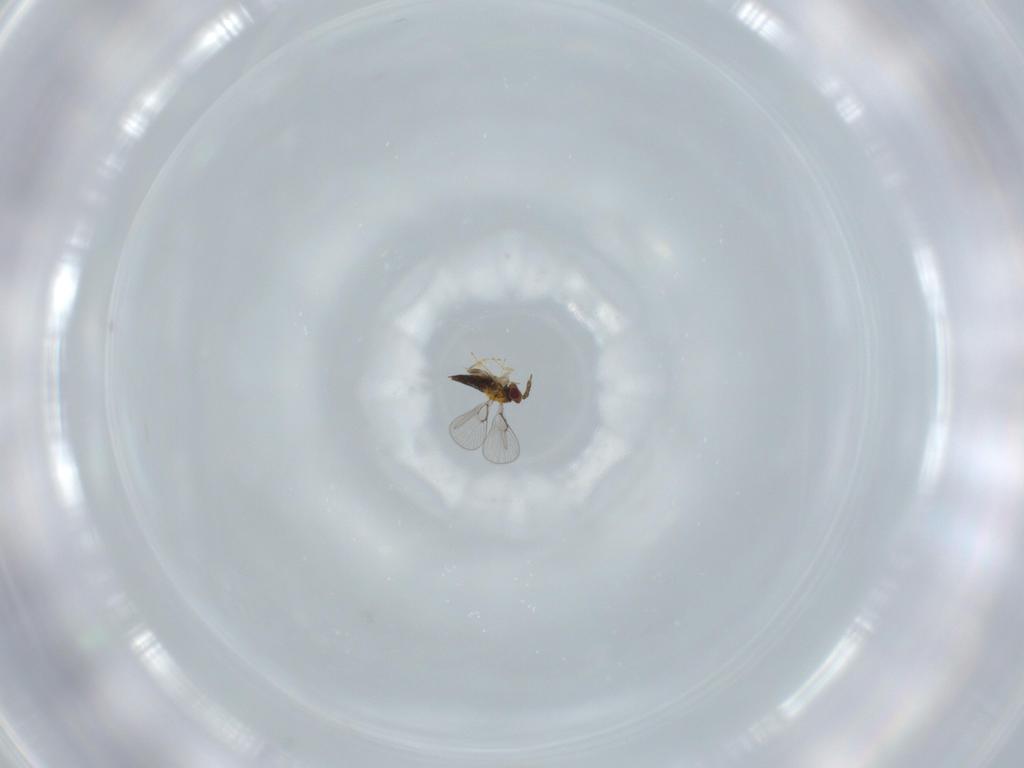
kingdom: Animalia
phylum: Arthropoda
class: Insecta
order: Hymenoptera
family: Trichogrammatidae
